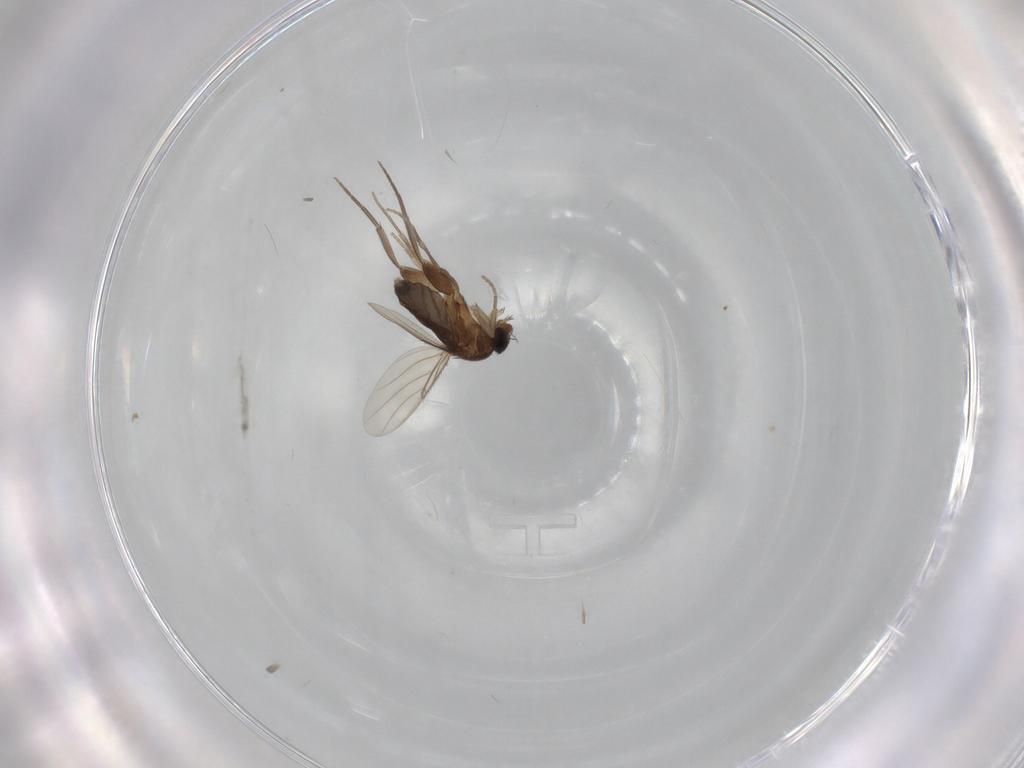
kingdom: Animalia
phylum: Arthropoda
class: Insecta
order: Diptera
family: Phoridae
